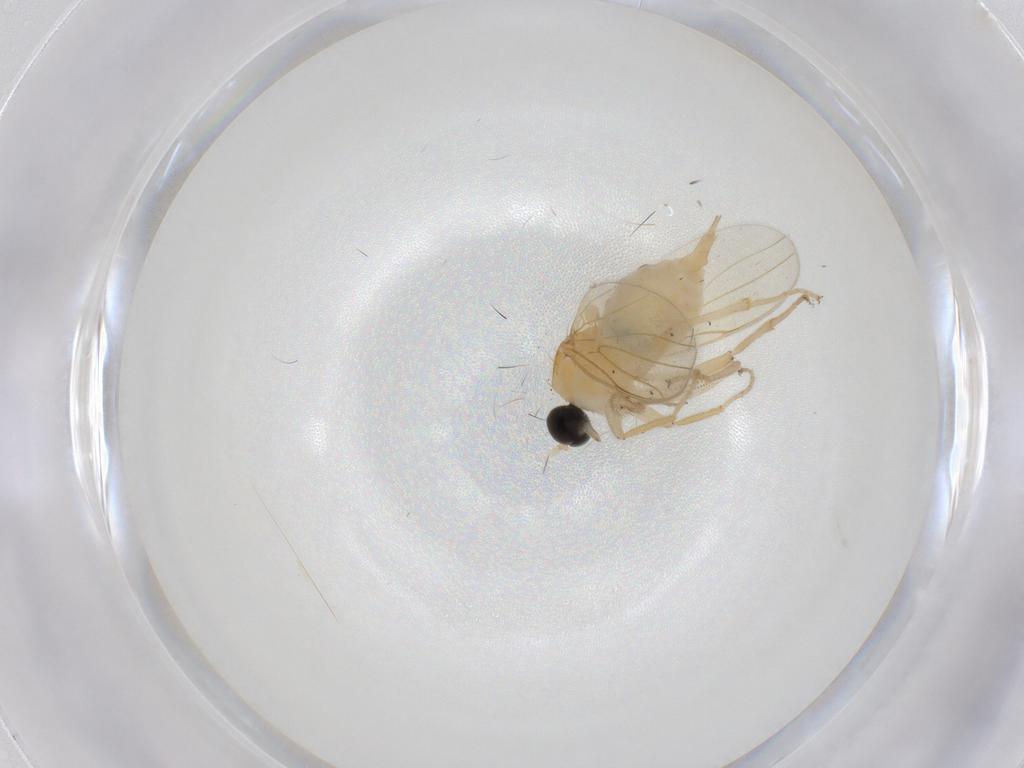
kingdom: Animalia
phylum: Arthropoda
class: Insecta
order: Diptera
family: Sciaridae
